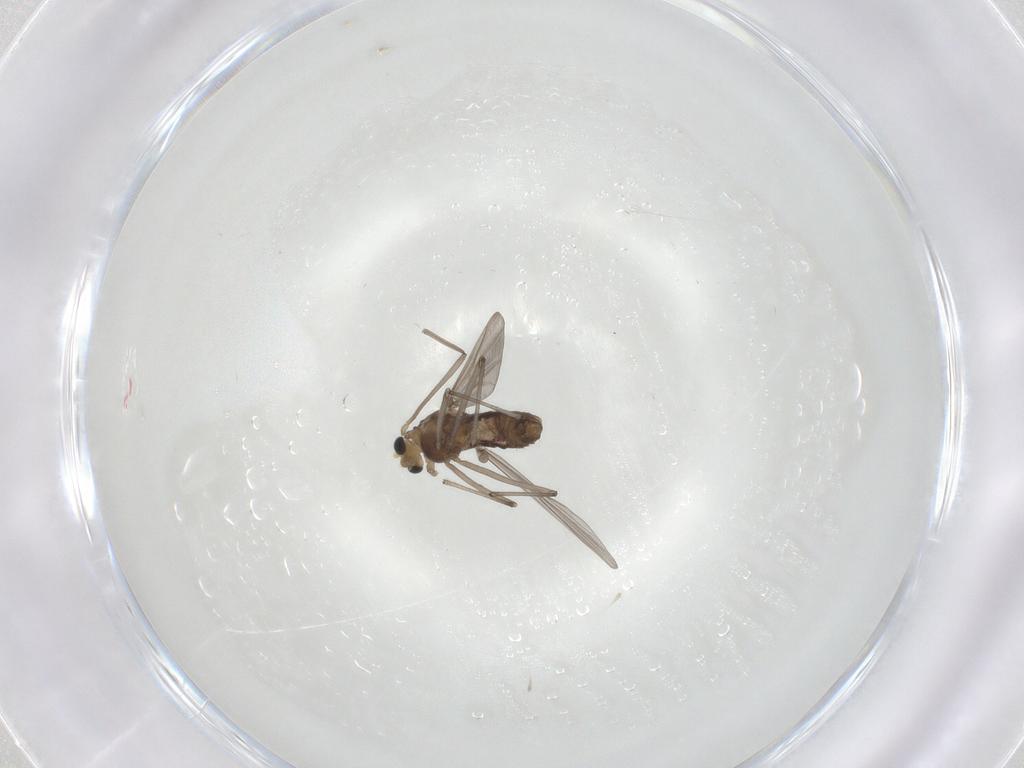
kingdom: Animalia
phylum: Arthropoda
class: Insecta
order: Diptera
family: Chironomidae
